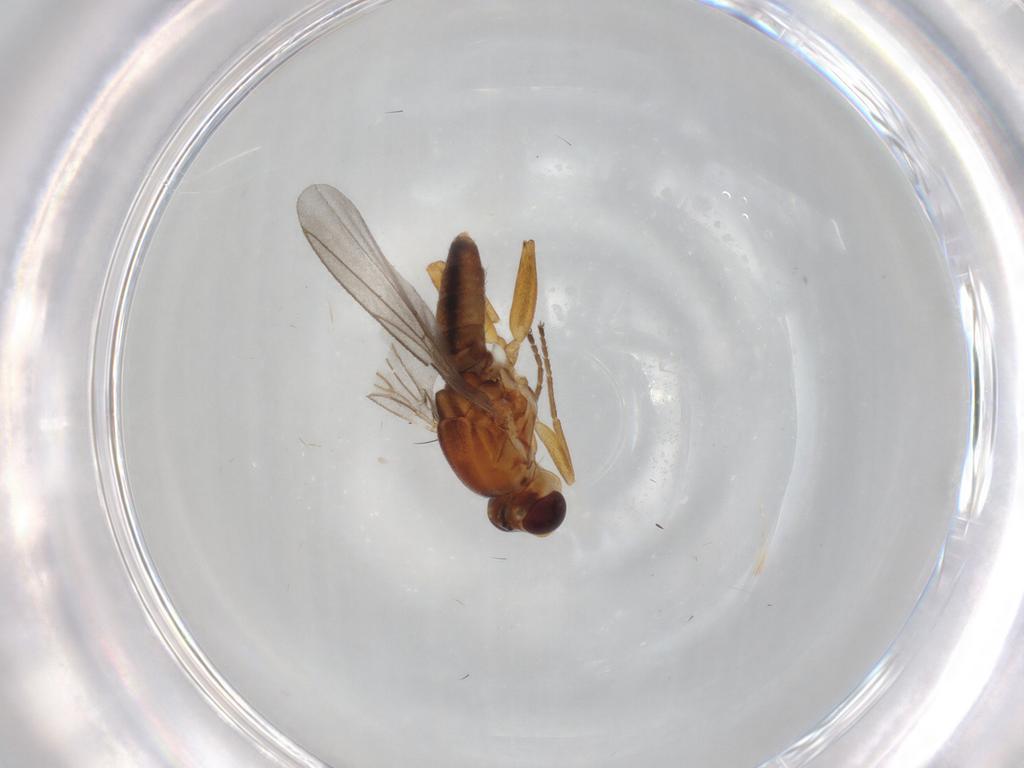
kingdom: Animalia
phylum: Arthropoda
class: Insecta
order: Diptera
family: Chloropidae
